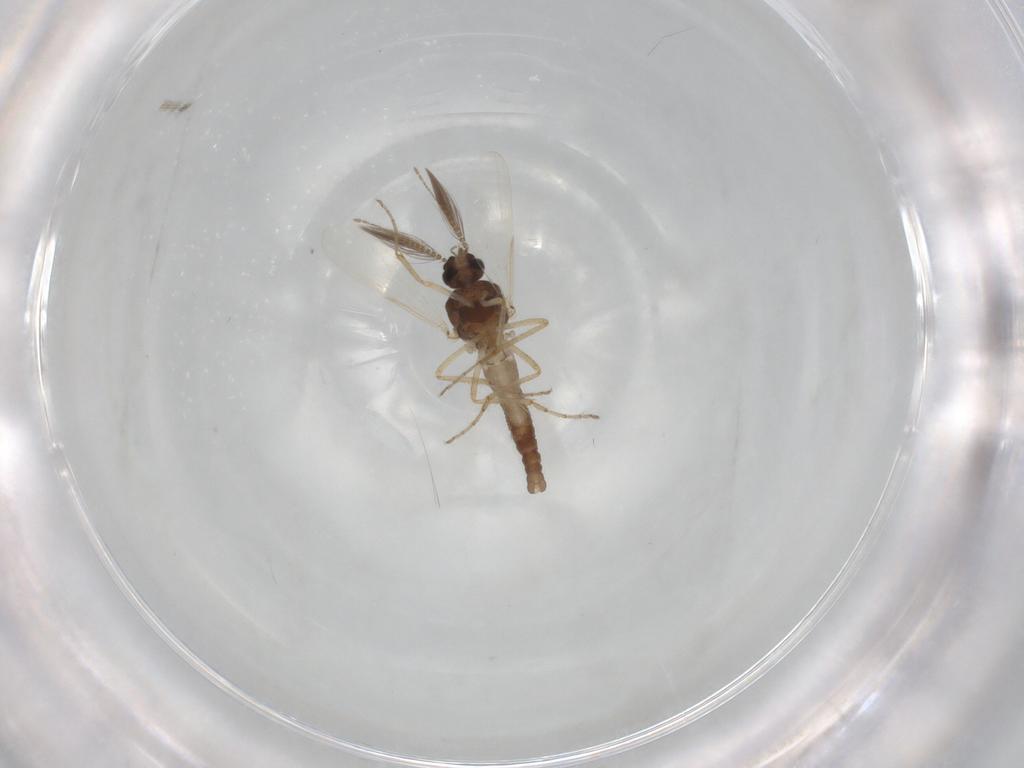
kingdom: Animalia
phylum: Arthropoda
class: Insecta
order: Diptera
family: Ceratopogonidae
